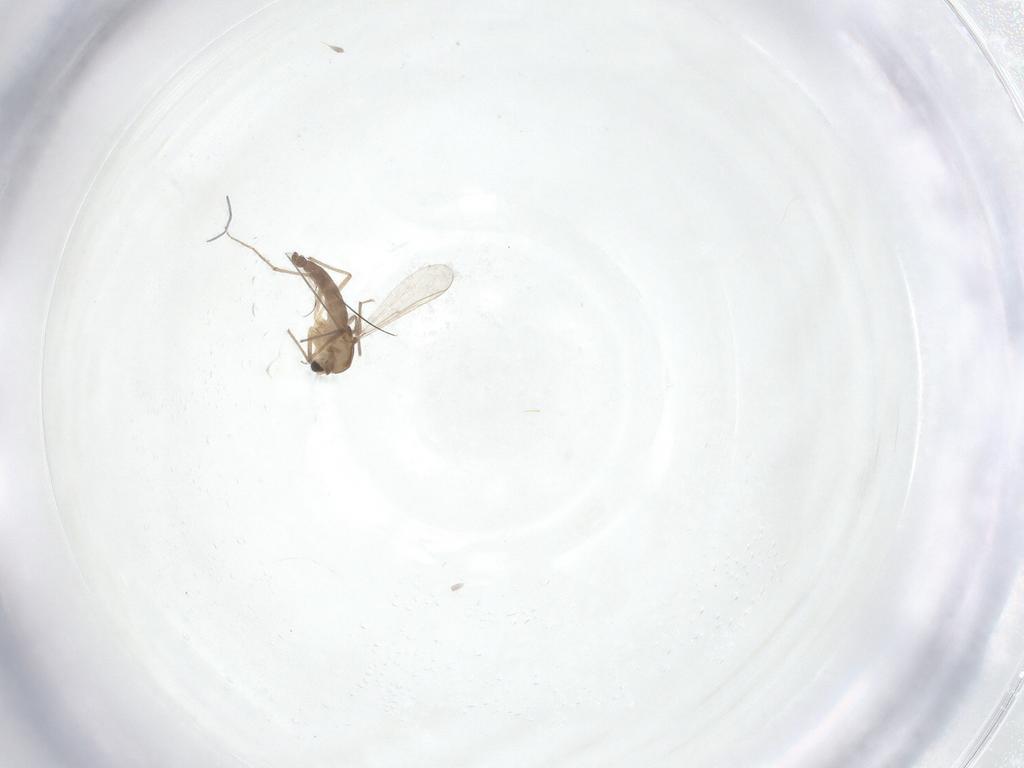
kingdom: Animalia
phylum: Arthropoda
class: Insecta
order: Diptera
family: Chironomidae
